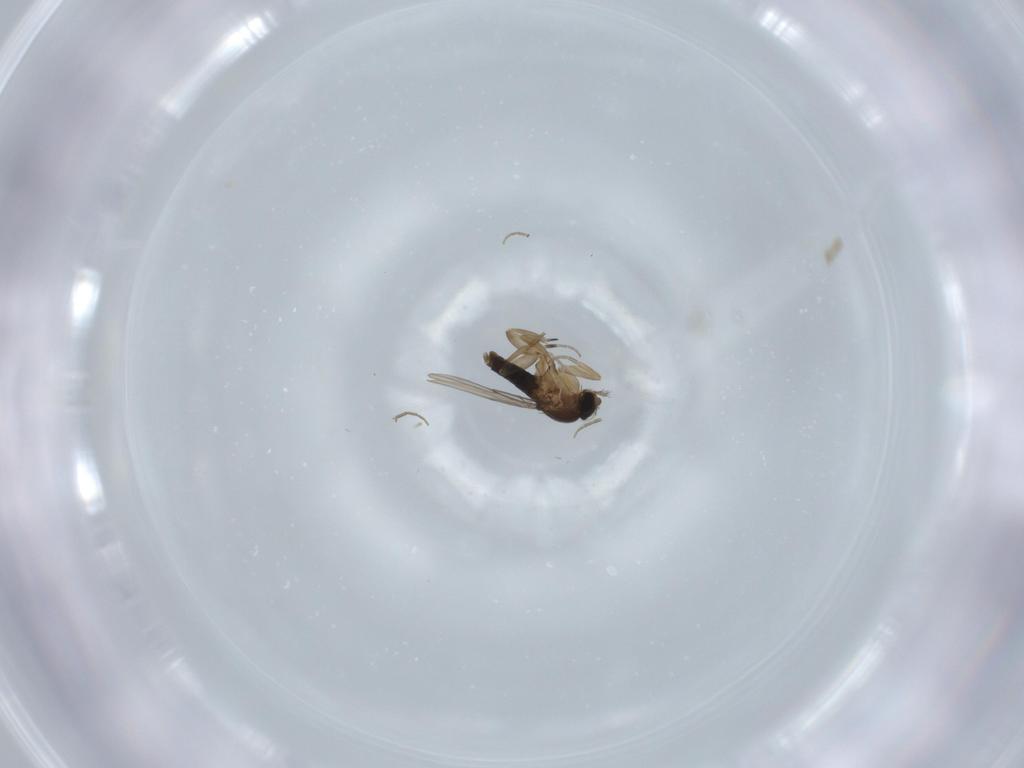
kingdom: Animalia
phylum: Arthropoda
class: Insecta
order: Diptera
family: Phoridae
